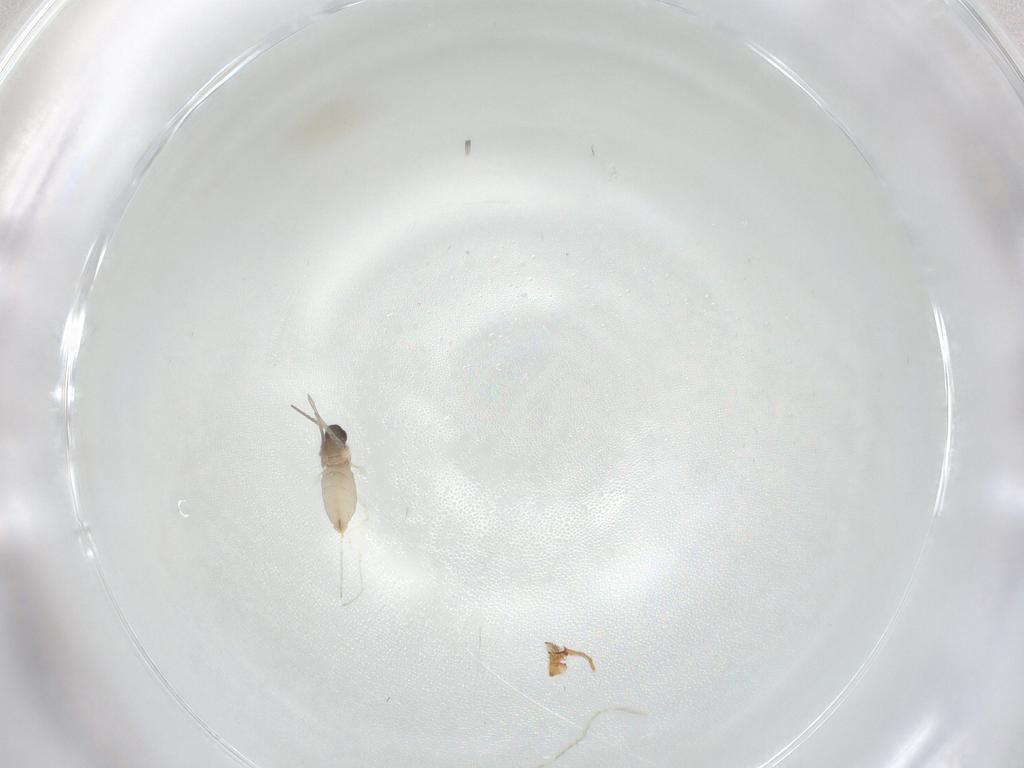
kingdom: Animalia
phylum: Arthropoda
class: Insecta
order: Diptera
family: Cecidomyiidae
